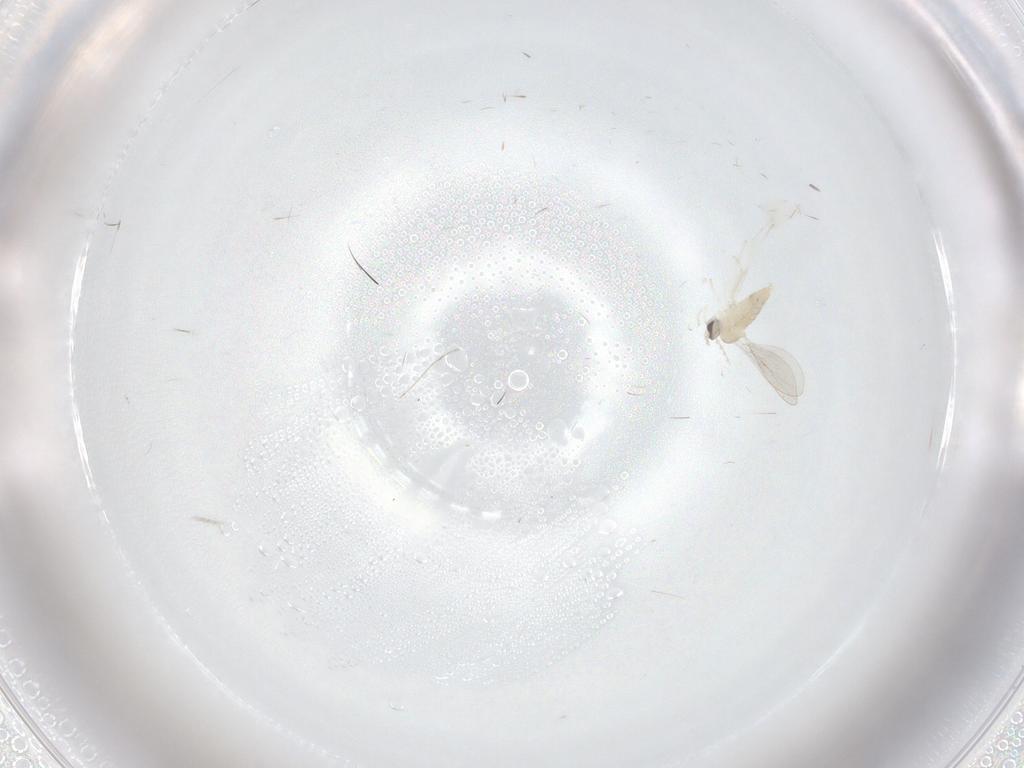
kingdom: Animalia
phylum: Arthropoda
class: Insecta
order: Diptera
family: Cecidomyiidae
